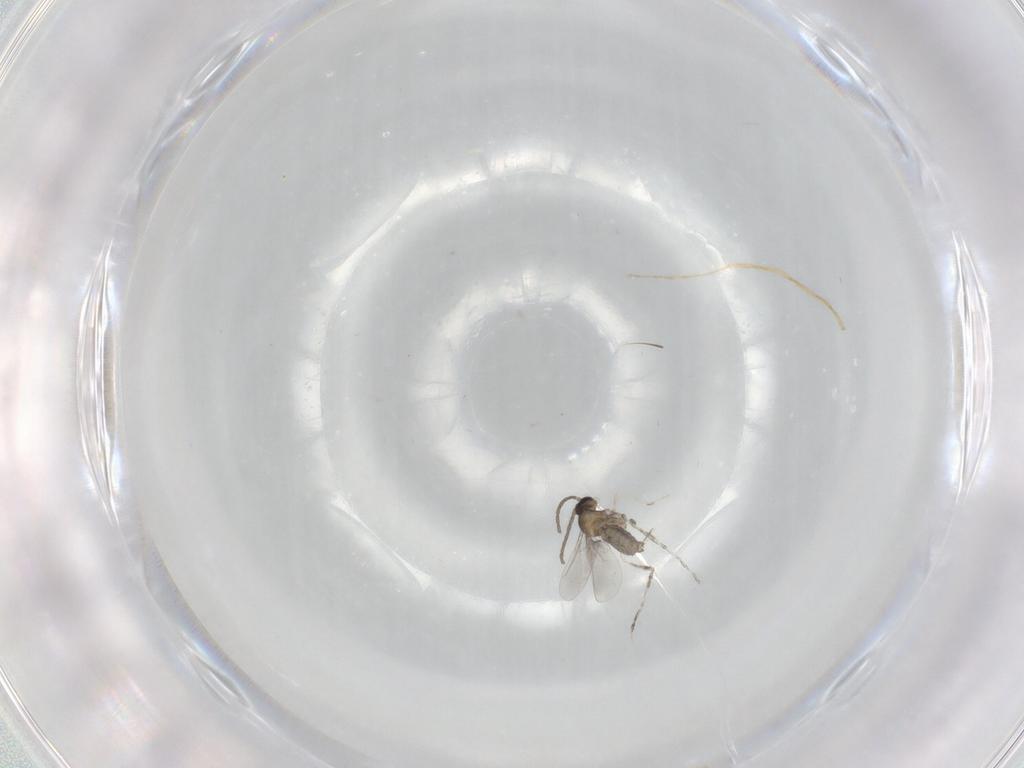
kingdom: Animalia
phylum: Arthropoda
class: Insecta
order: Diptera
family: Cecidomyiidae
